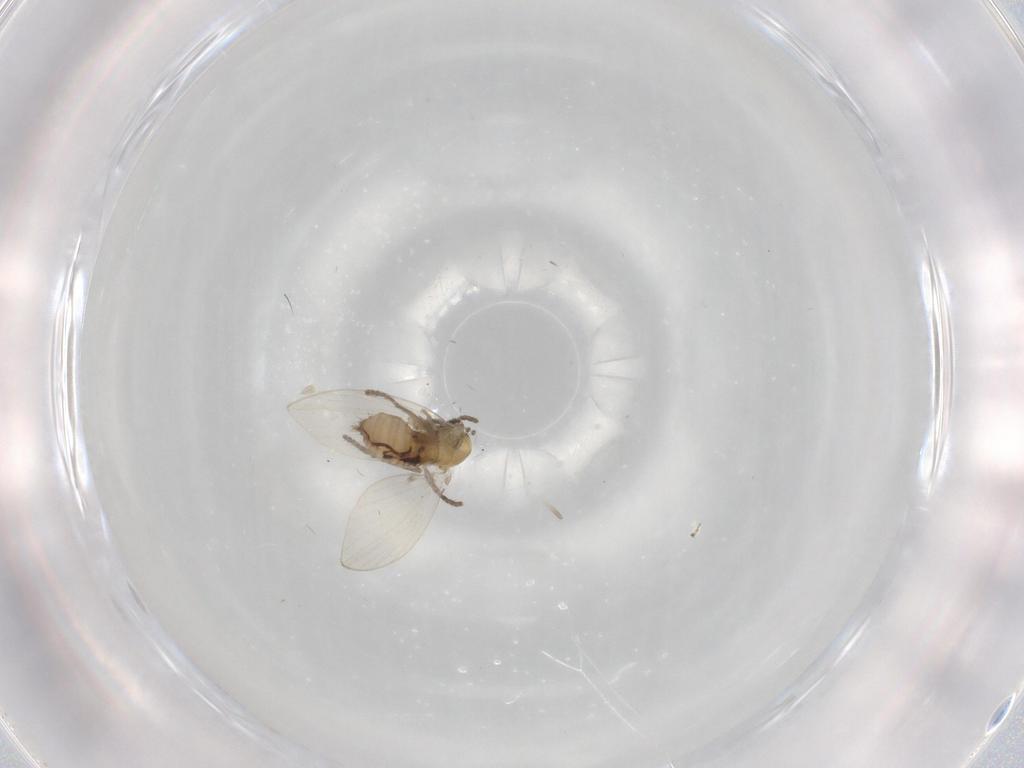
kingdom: Animalia
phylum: Arthropoda
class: Insecta
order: Diptera
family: Psychodidae
